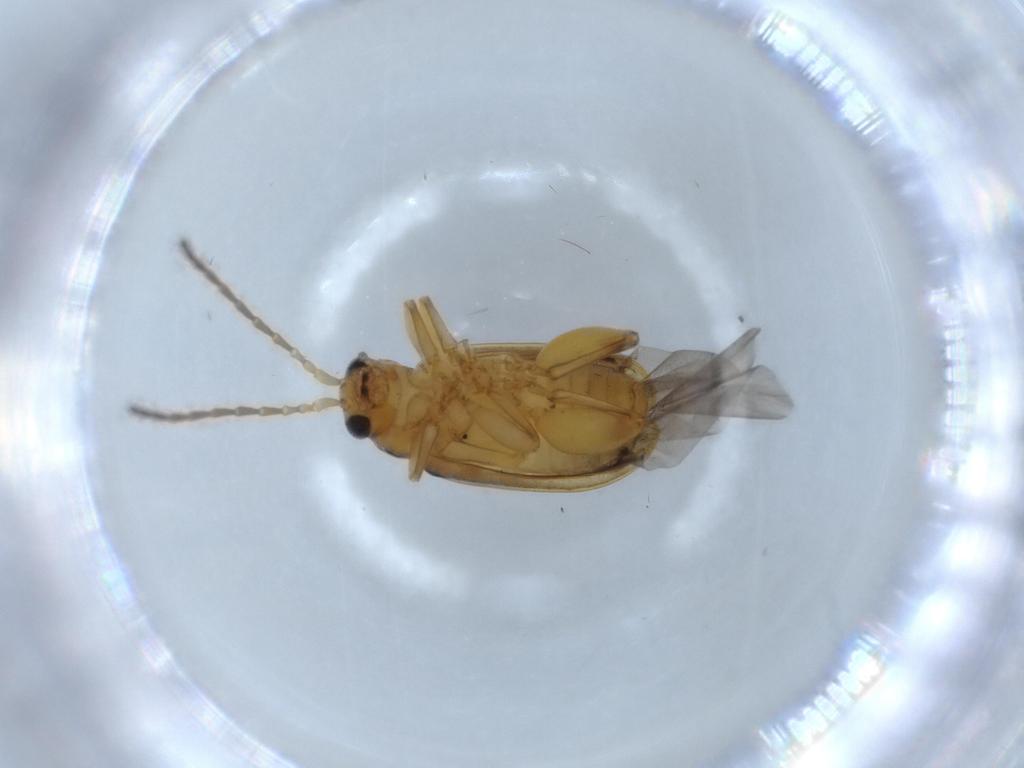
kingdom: Animalia
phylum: Arthropoda
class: Insecta
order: Coleoptera
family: Chrysomelidae
